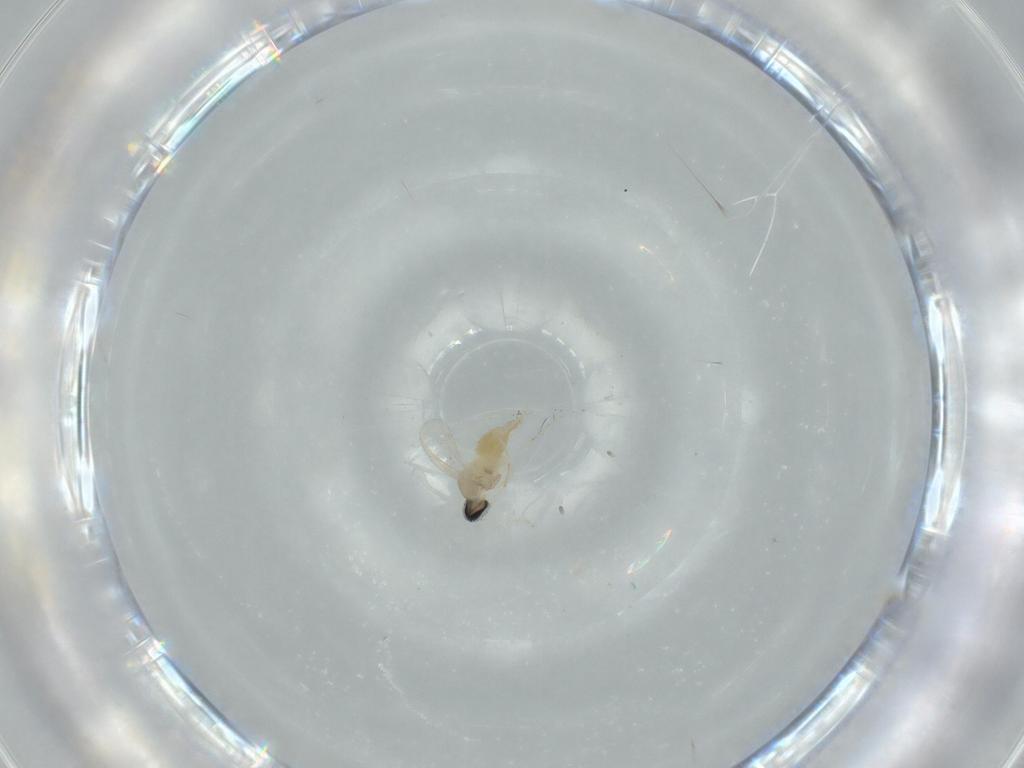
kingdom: Animalia
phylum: Arthropoda
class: Insecta
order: Diptera
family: Cecidomyiidae
